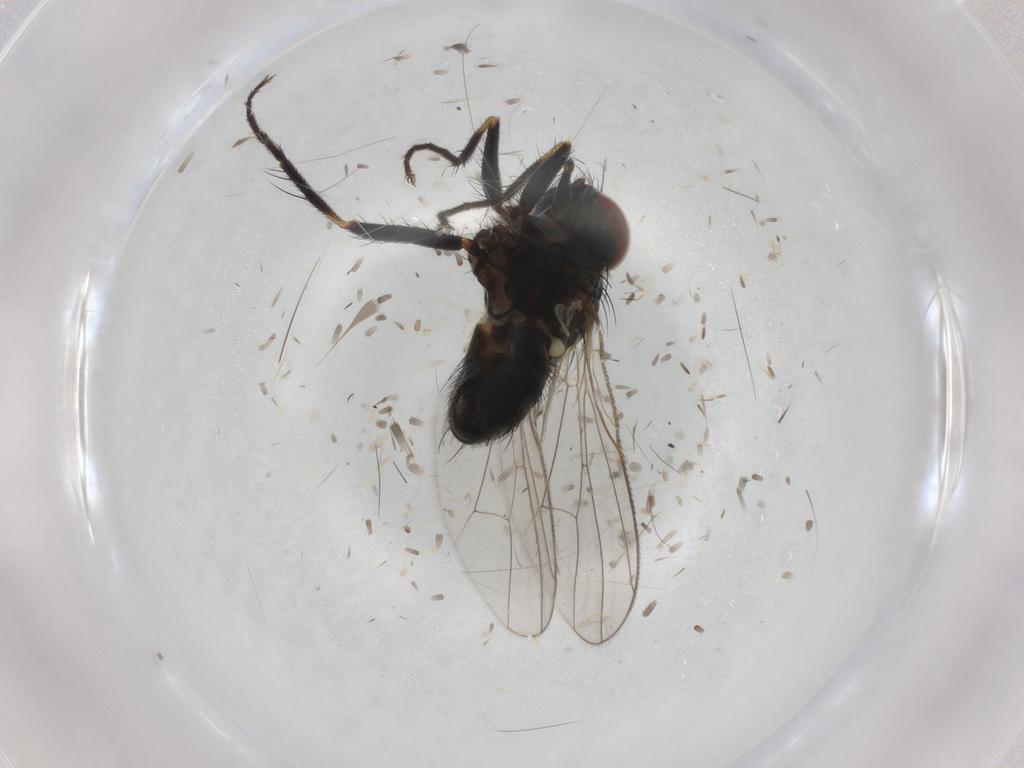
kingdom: Animalia
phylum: Arthropoda
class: Insecta
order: Diptera
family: Muscidae
